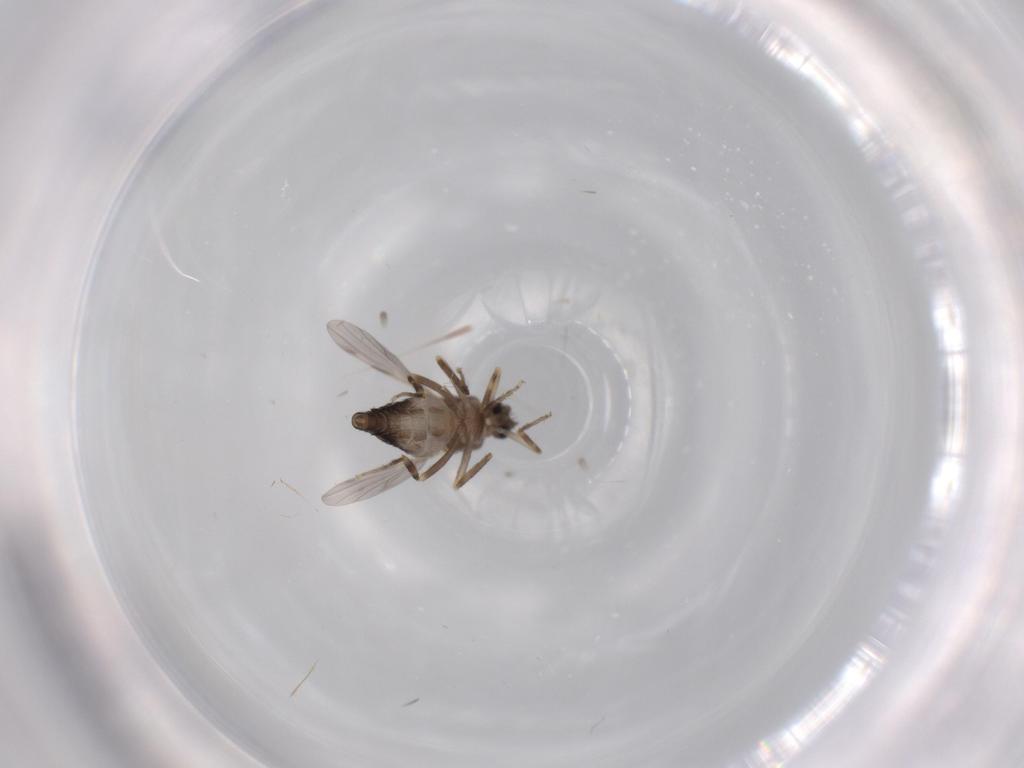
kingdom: Animalia
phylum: Arthropoda
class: Insecta
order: Diptera
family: Ceratopogonidae
